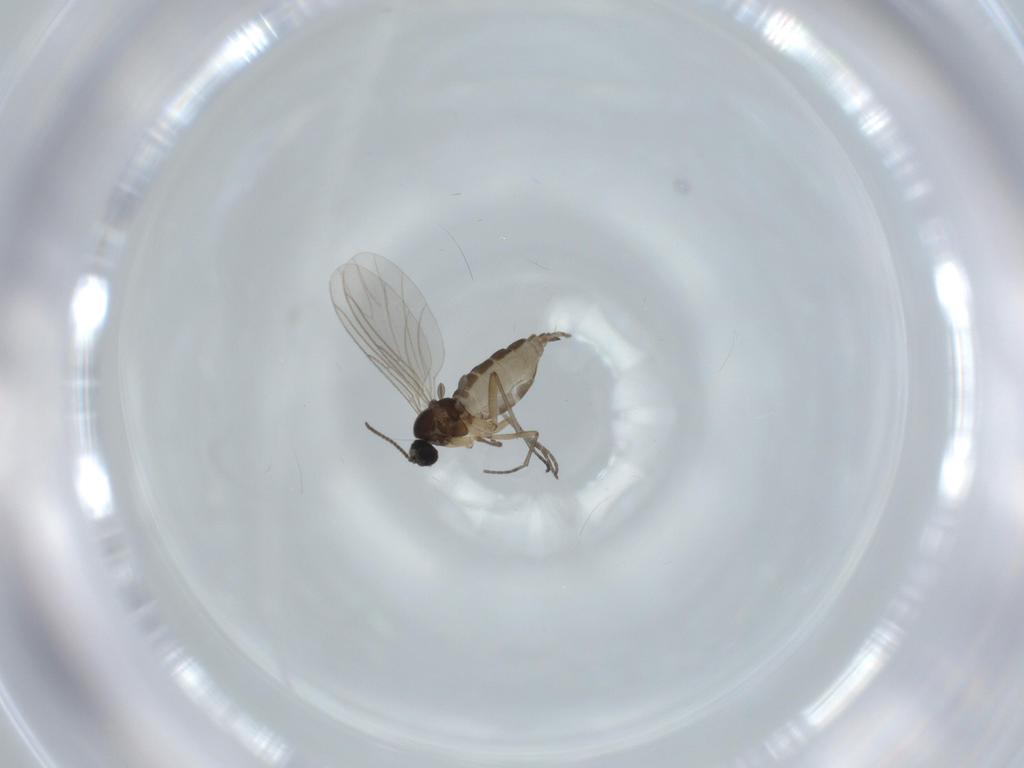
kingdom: Animalia
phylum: Arthropoda
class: Insecta
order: Diptera
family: Sciaridae
